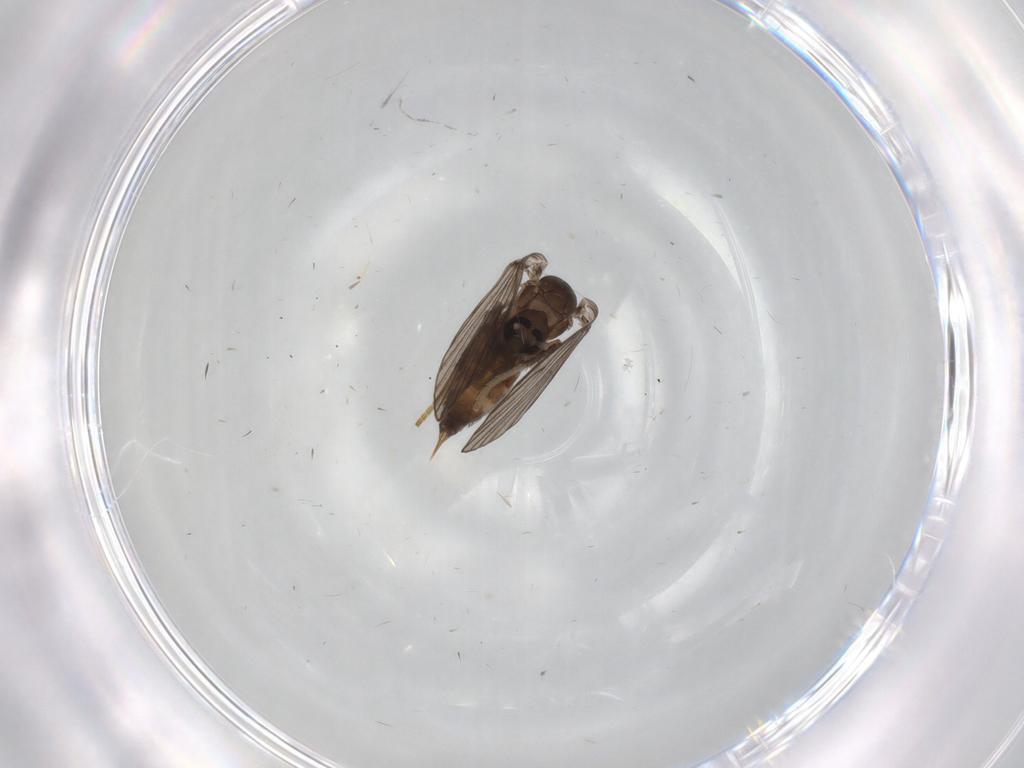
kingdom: Animalia
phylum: Arthropoda
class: Insecta
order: Diptera
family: Psychodidae
